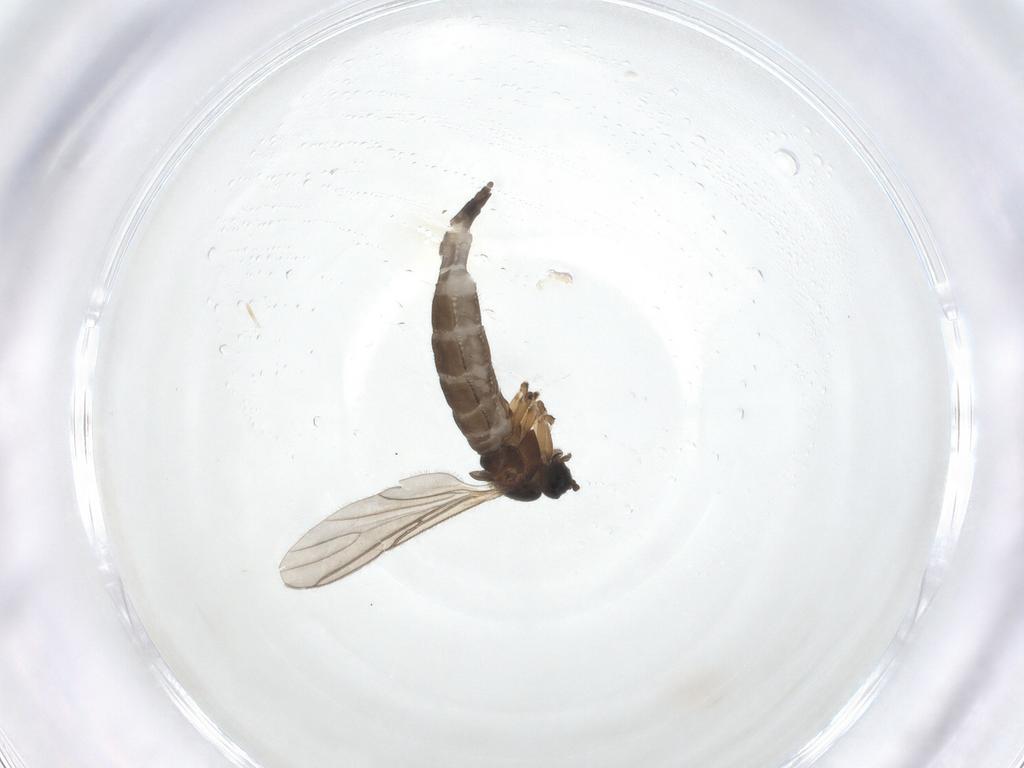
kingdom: Animalia
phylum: Arthropoda
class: Insecta
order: Diptera
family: Sciaridae
